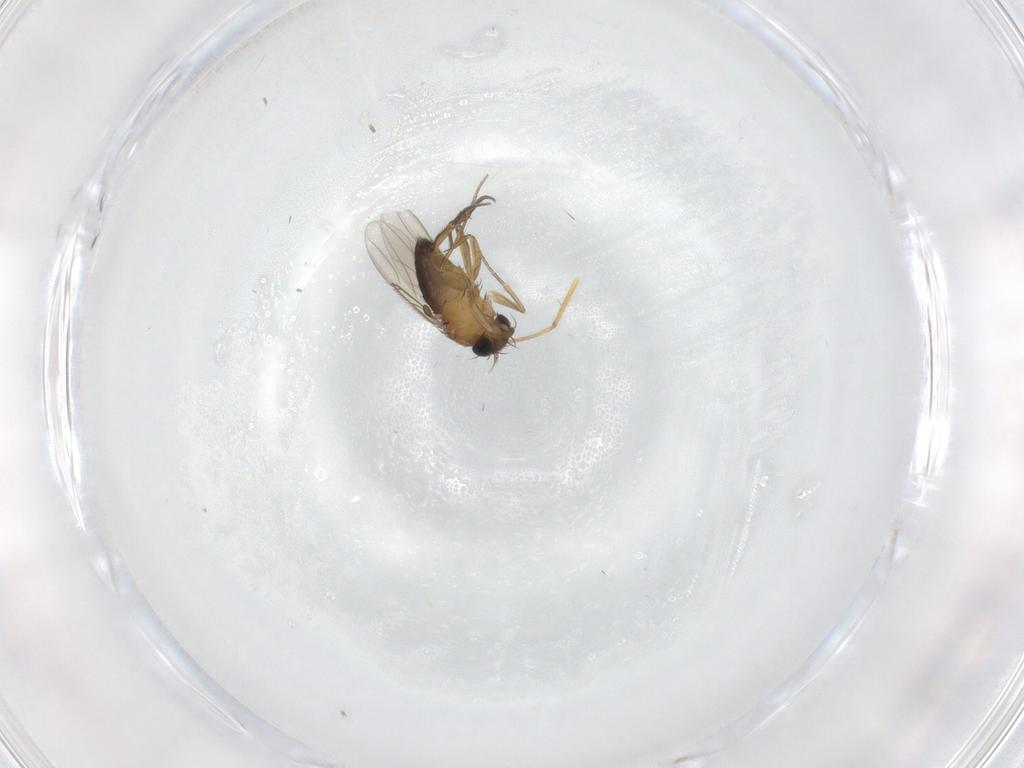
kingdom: Animalia
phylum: Arthropoda
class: Insecta
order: Diptera
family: Phoridae
